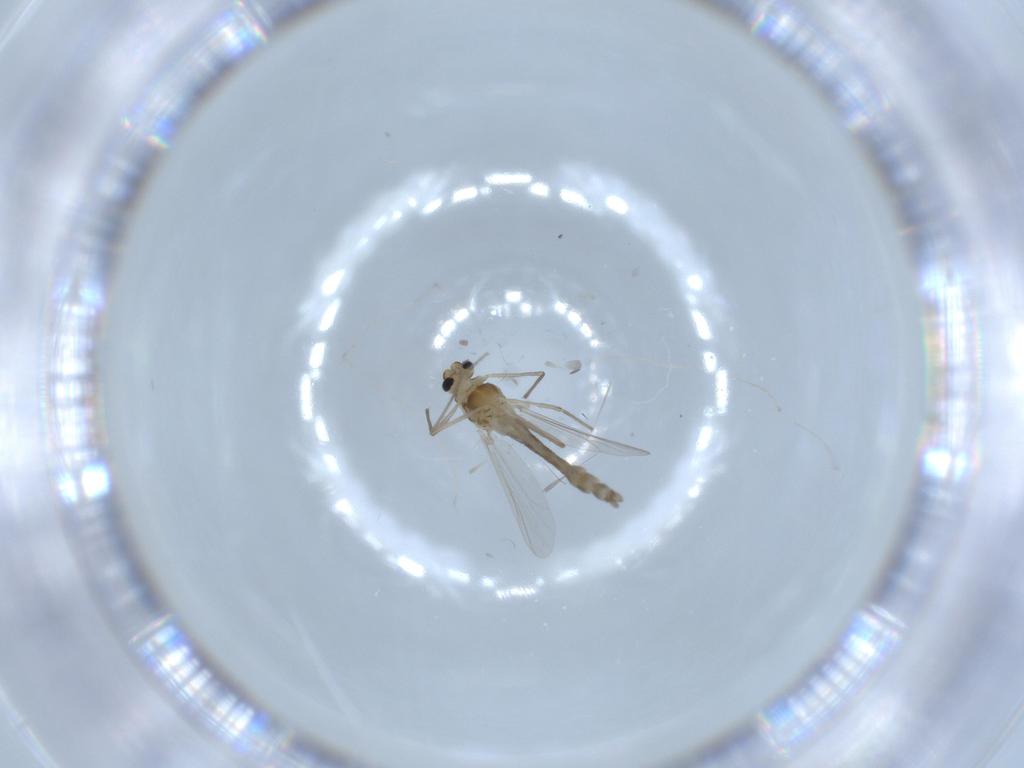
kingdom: Animalia
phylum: Arthropoda
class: Insecta
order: Diptera
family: Chironomidae
